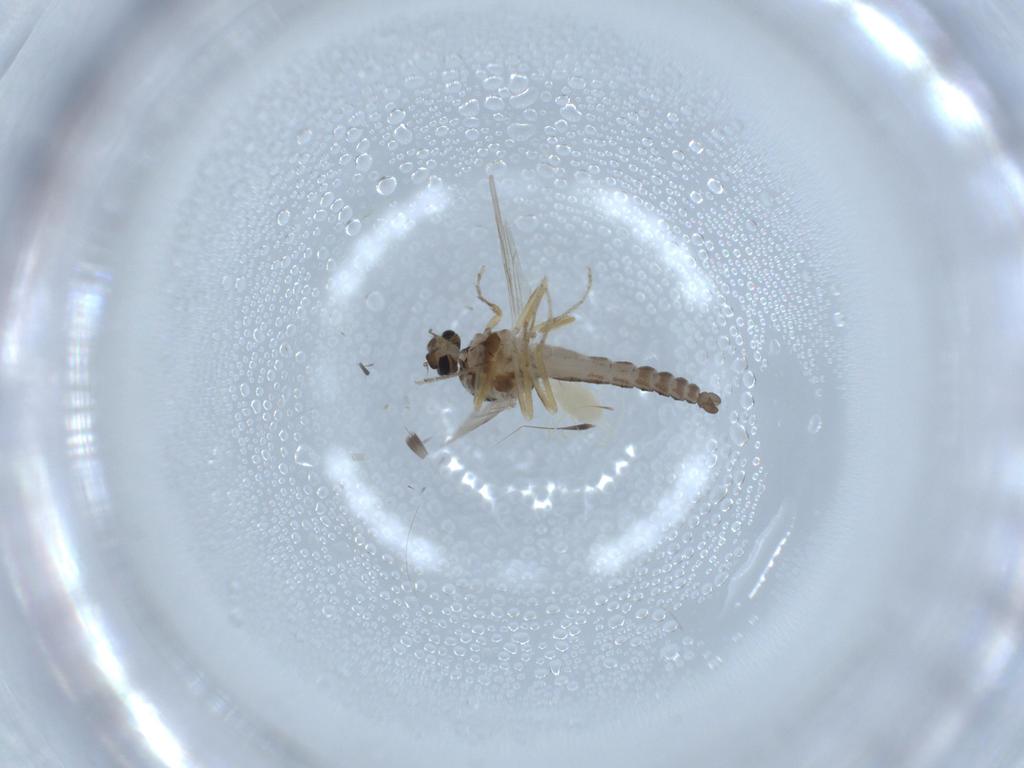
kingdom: Animalia
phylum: Arthropoda
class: Insecta
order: Diptera
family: Ceratopogonidae
